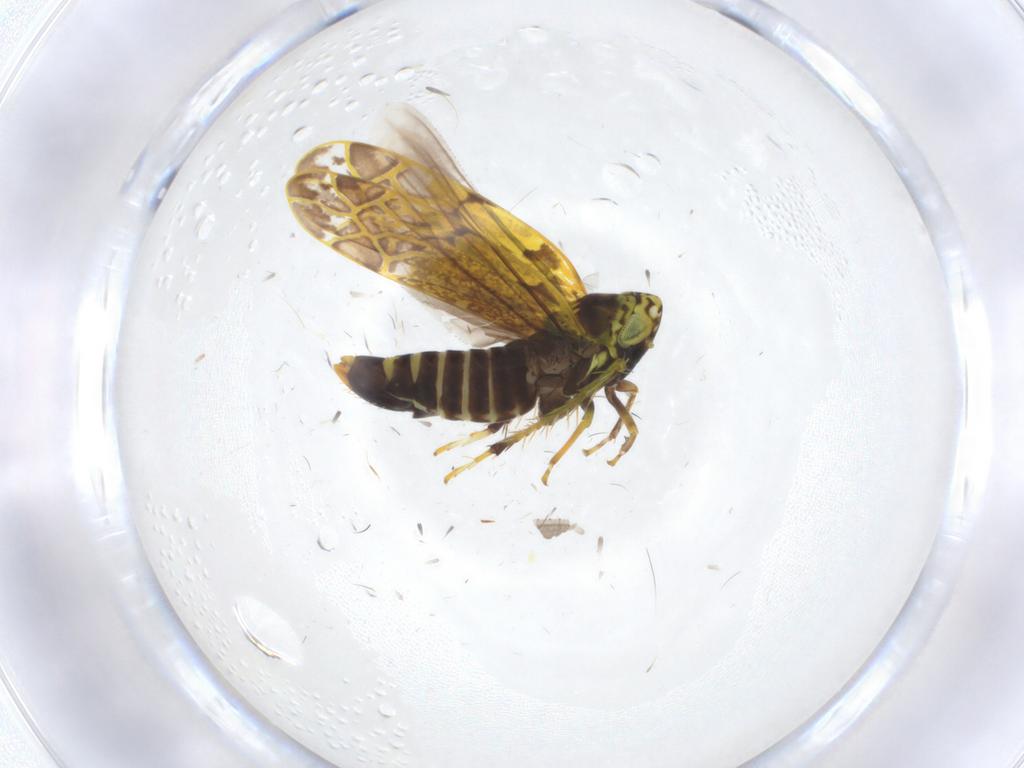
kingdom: Animalia
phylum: Arthropoda
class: Insecta
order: Hemiptera
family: Cicadellidae
